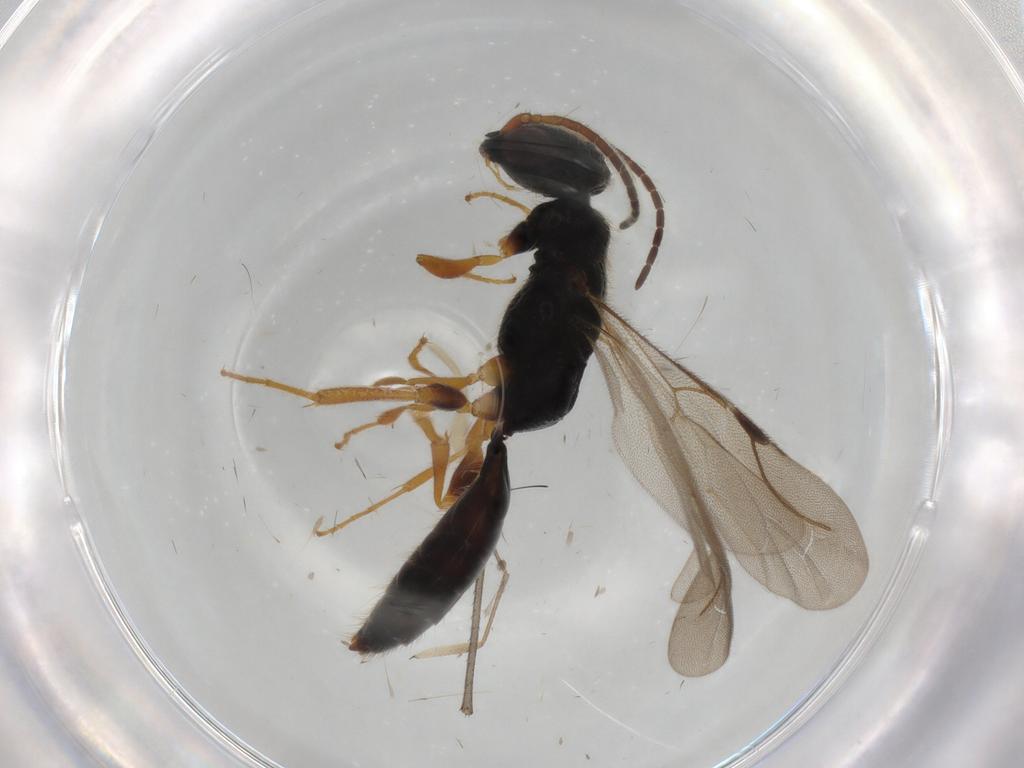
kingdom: Animalia
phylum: Arthropoda
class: Insecta
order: Hymenoptera
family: Bethylidae
